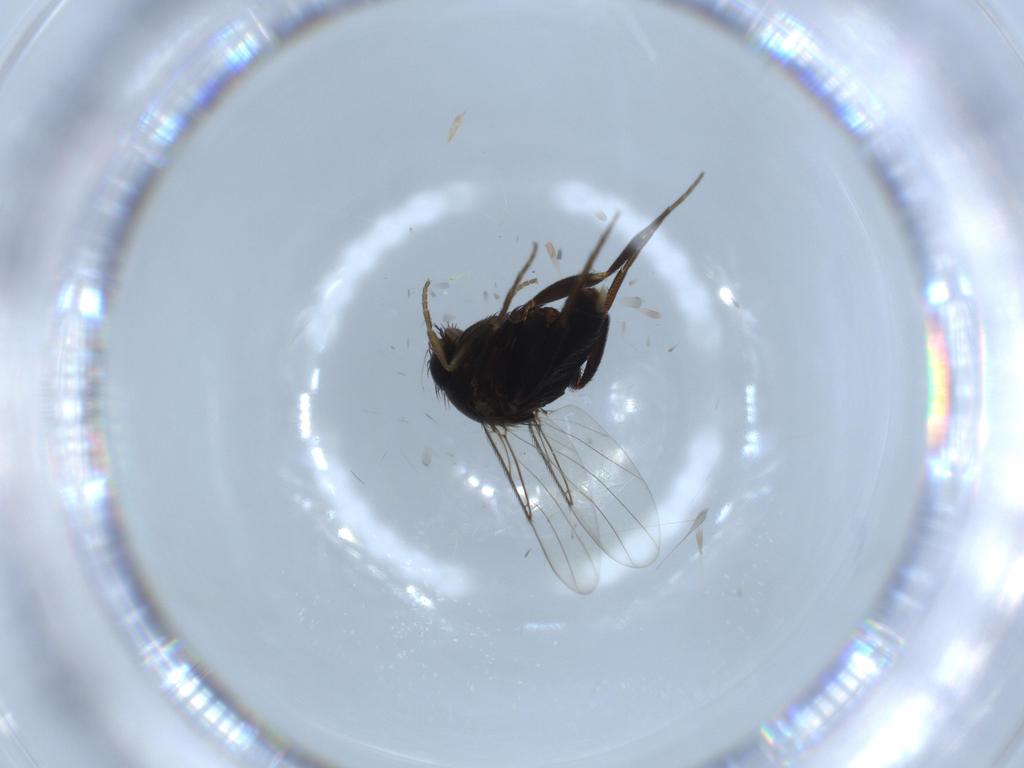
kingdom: Animalia
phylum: Arthropoda
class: Insecta
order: Diptera
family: Phoridae
